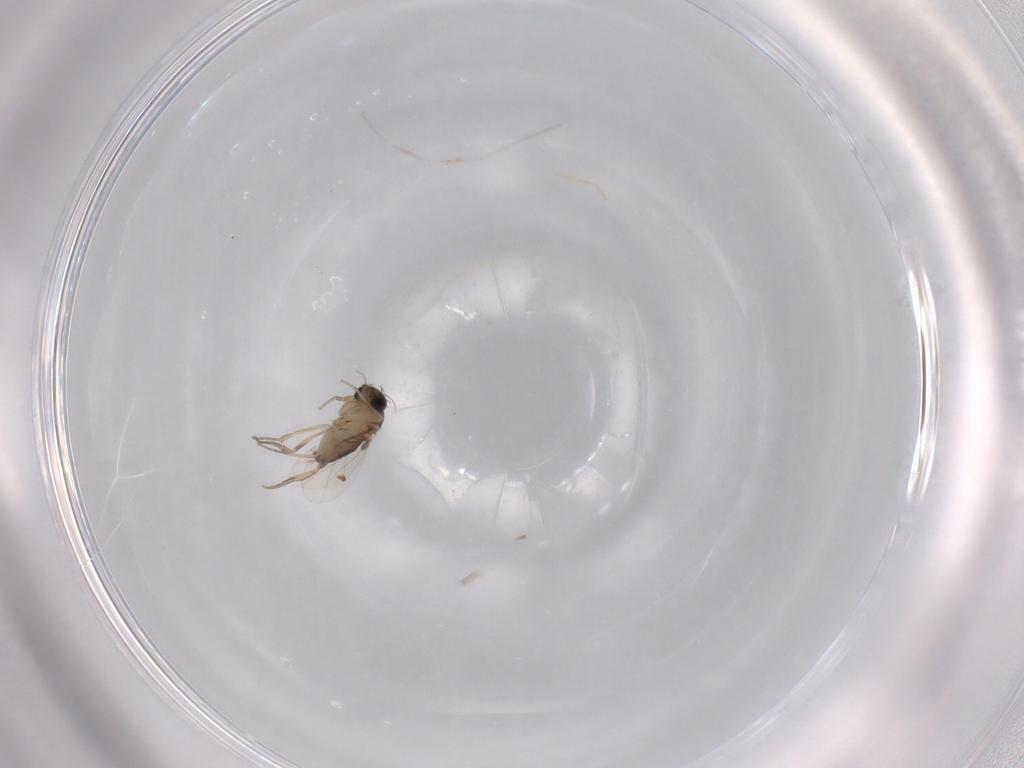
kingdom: Animalia
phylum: Arthropoda
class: Insecta
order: Diptera
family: Phoridae
